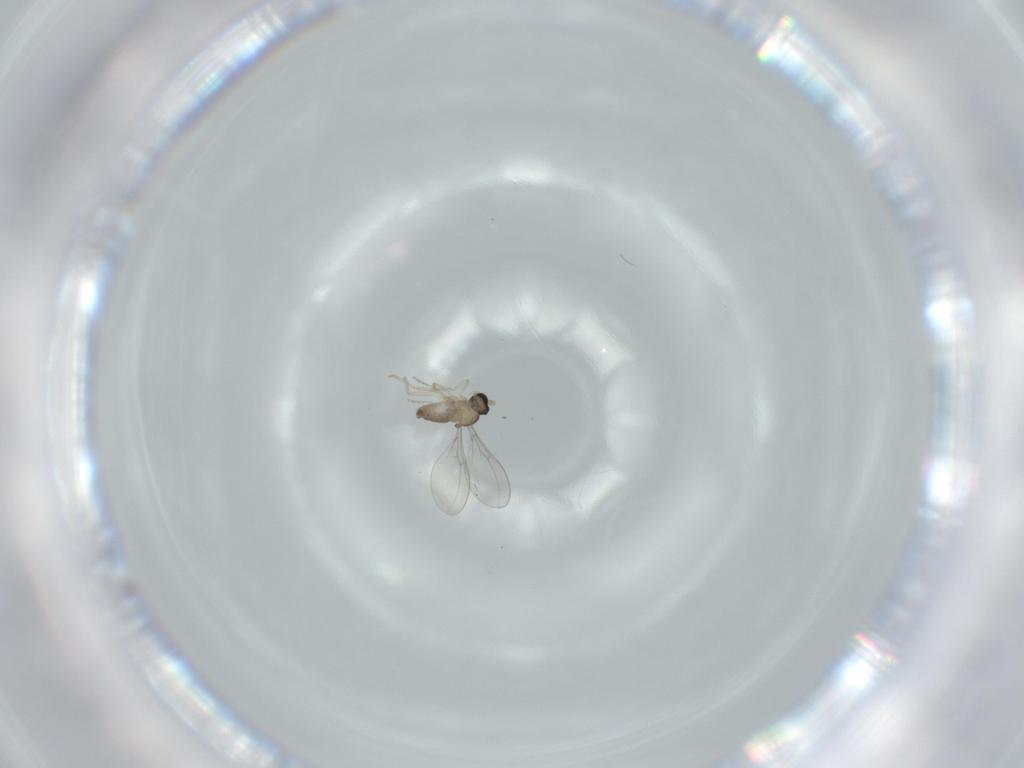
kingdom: Animalia
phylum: Arthropoda
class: Insecta
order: Diptera
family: Cecidomyiidae
